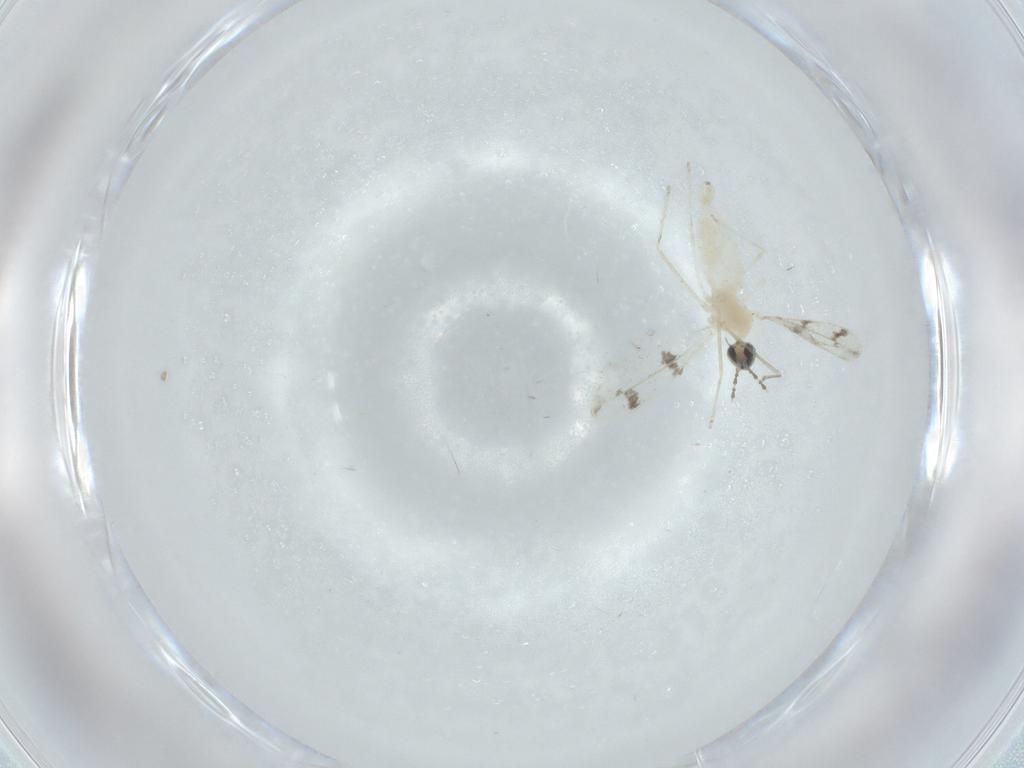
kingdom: Animalia
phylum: Arthropoda
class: Insecta
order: Diptera
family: Cecidomyiidae
